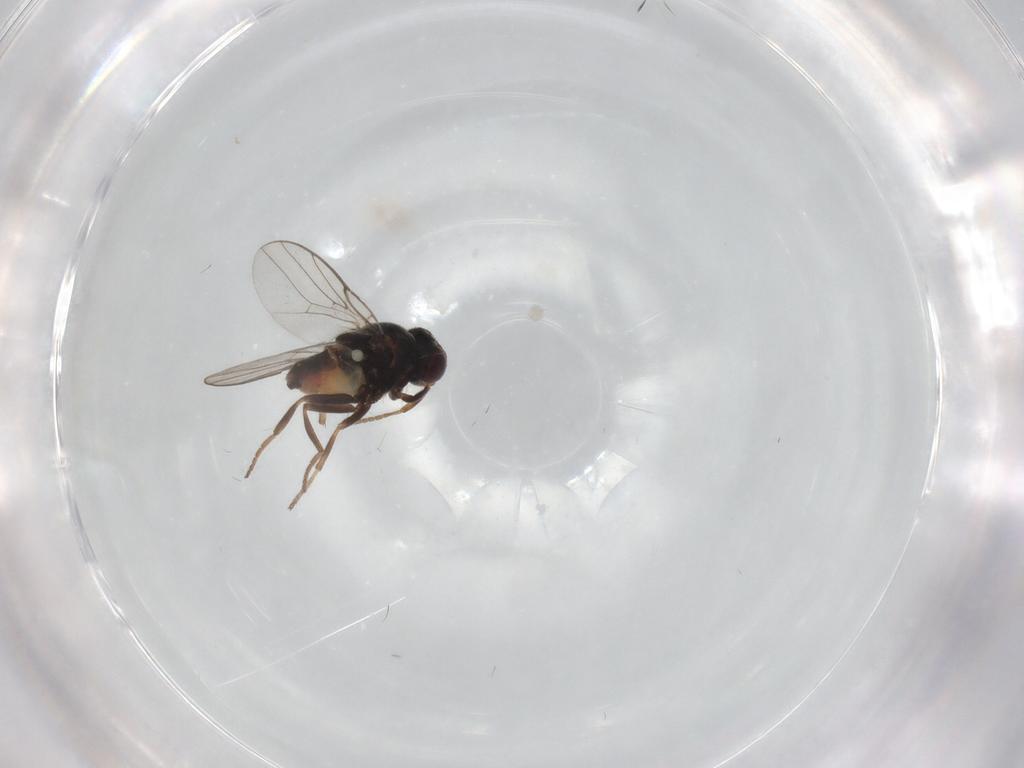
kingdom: Animalia
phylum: Arthropoda
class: Insecta
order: Diptera
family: Chloropidae
